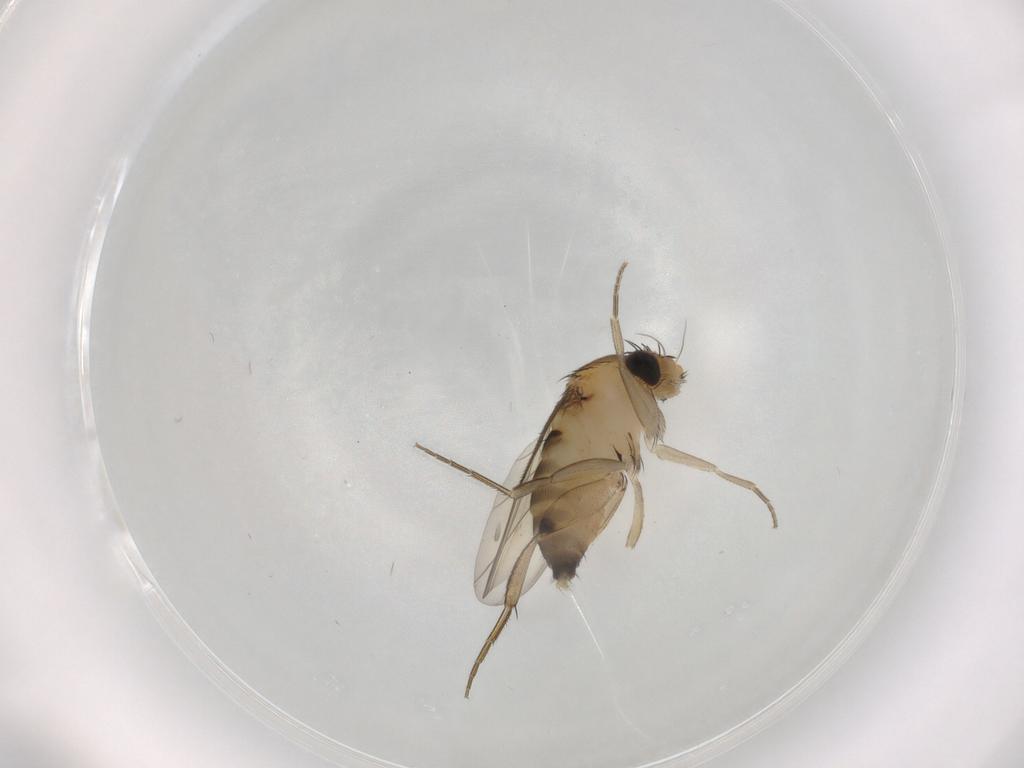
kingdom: Animalia
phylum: Arthropoda
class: Insecta
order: Diptera
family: Phoridae
